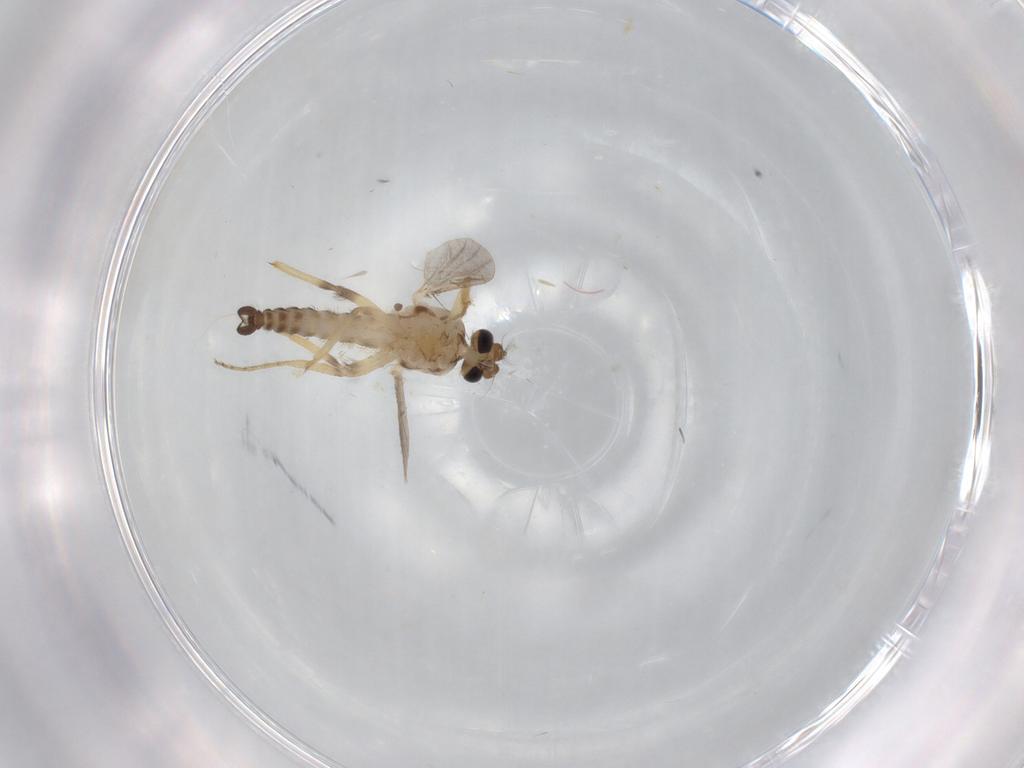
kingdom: Animalia
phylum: Arthropoda
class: Insecta
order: Diptera
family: Ceratopogonidae
